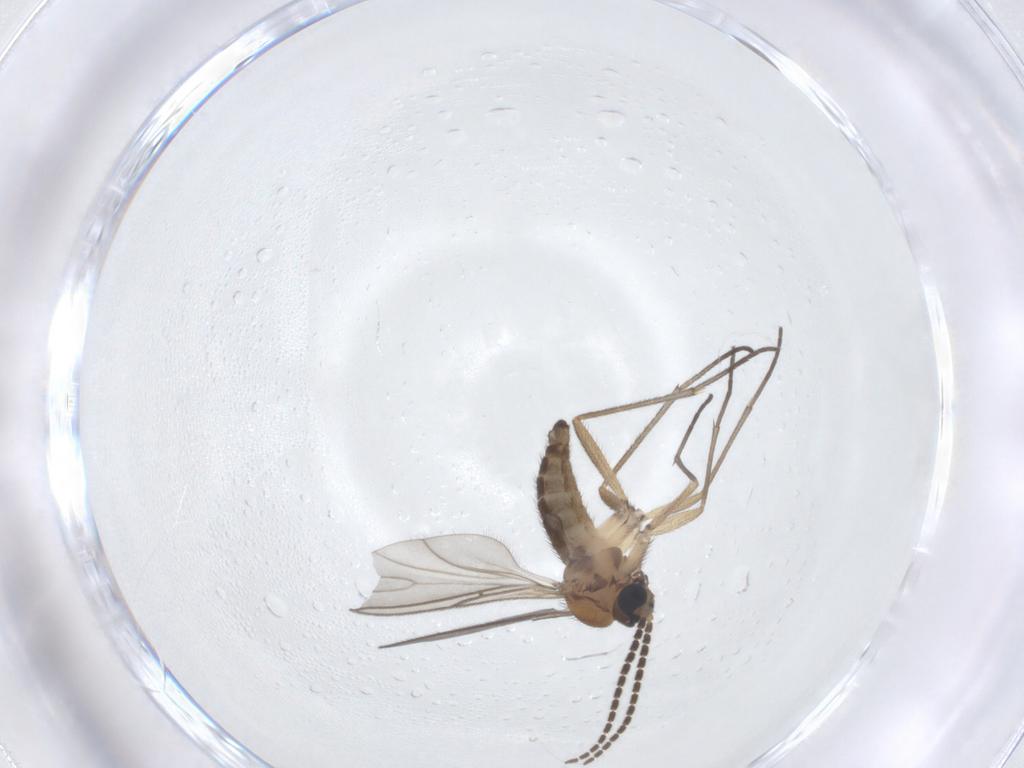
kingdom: Animalia
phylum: Arthropoda
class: Insecta
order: Diptera
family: Sciaridae
